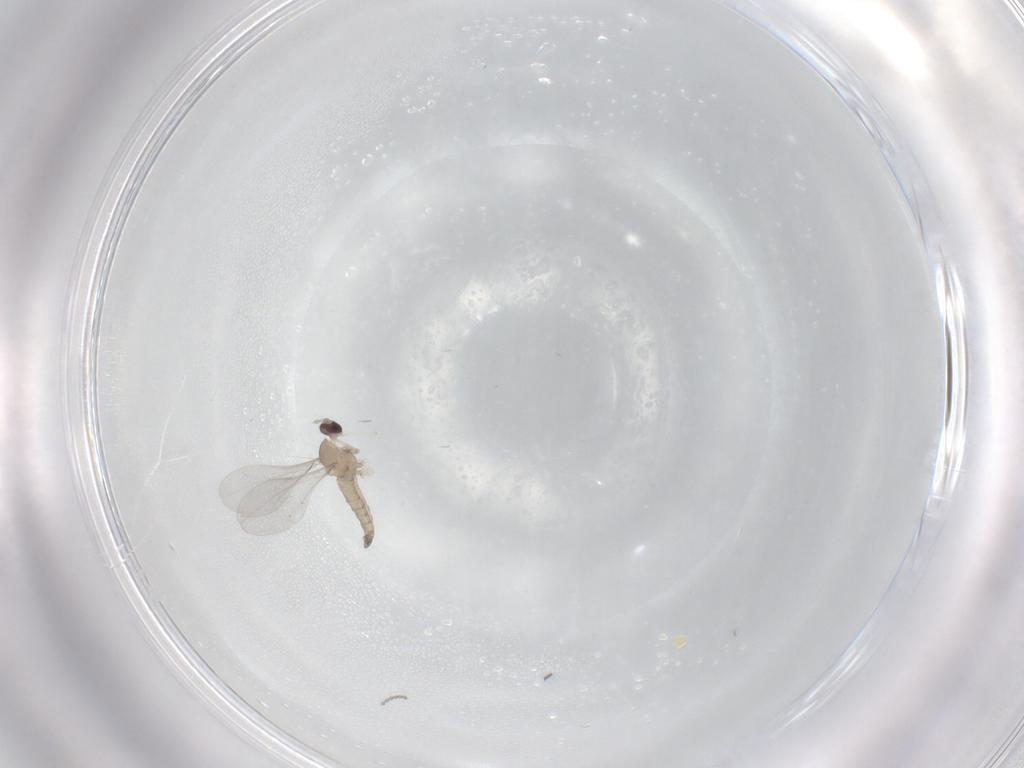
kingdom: Animalia
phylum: Arthropoda
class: Insecta
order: Diptera
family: Cecidomyiidae
